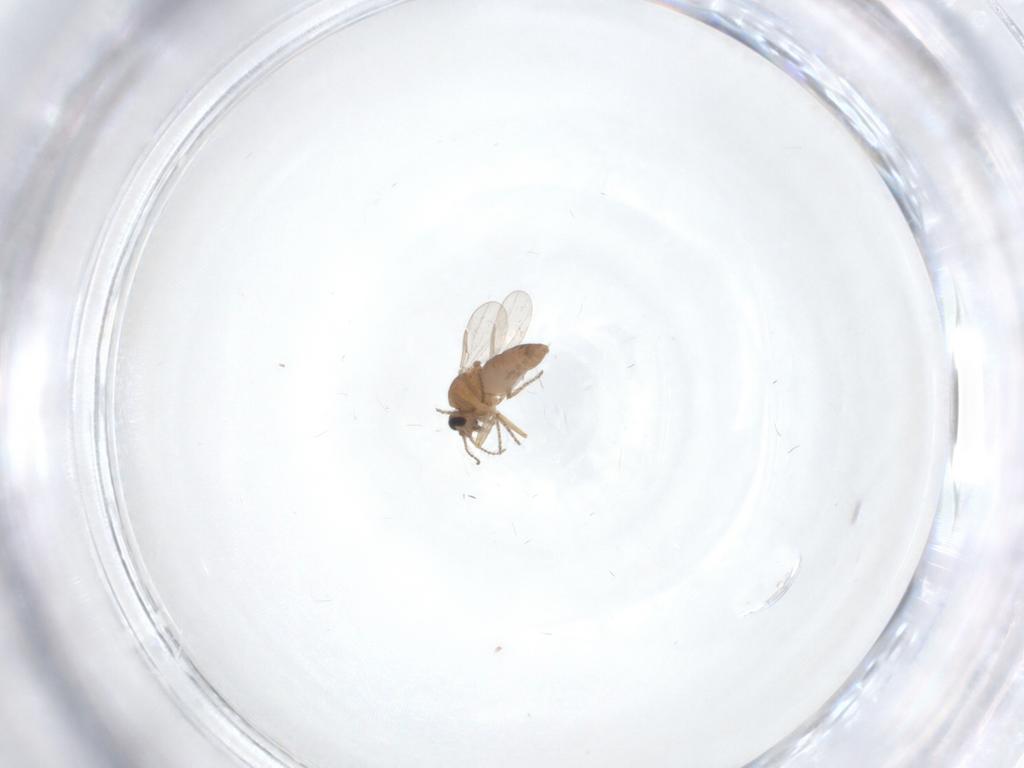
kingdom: Animalia
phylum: Arthropoda
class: Insecta
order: Diptera
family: Ceratopogonidae
